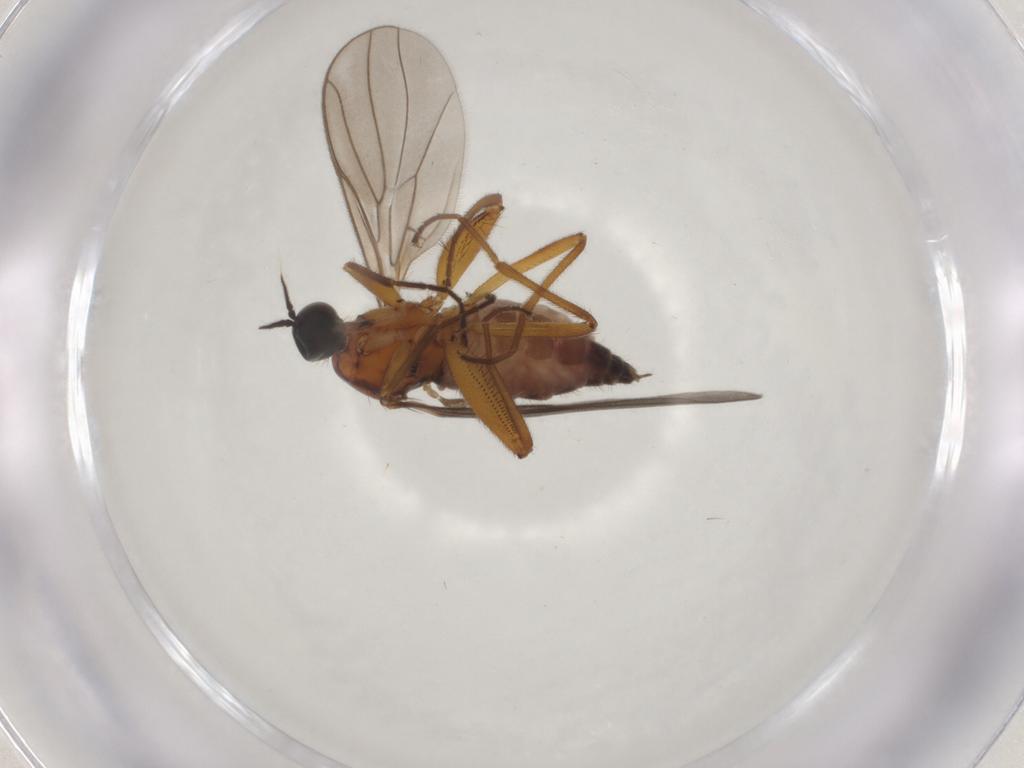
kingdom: Animalia
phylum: Arthropoda
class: Insecta
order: Diptera
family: Hybotidae
